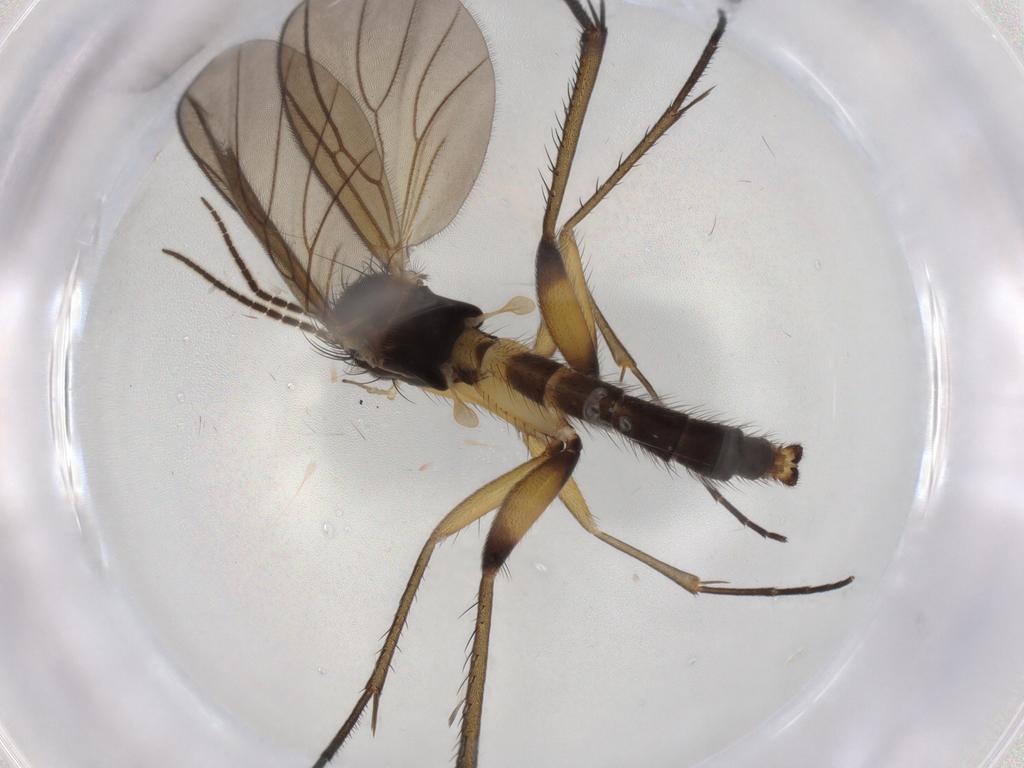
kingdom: Animalia
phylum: Arthropoda
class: Insecta
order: Diptera
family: Mycetophilidae
